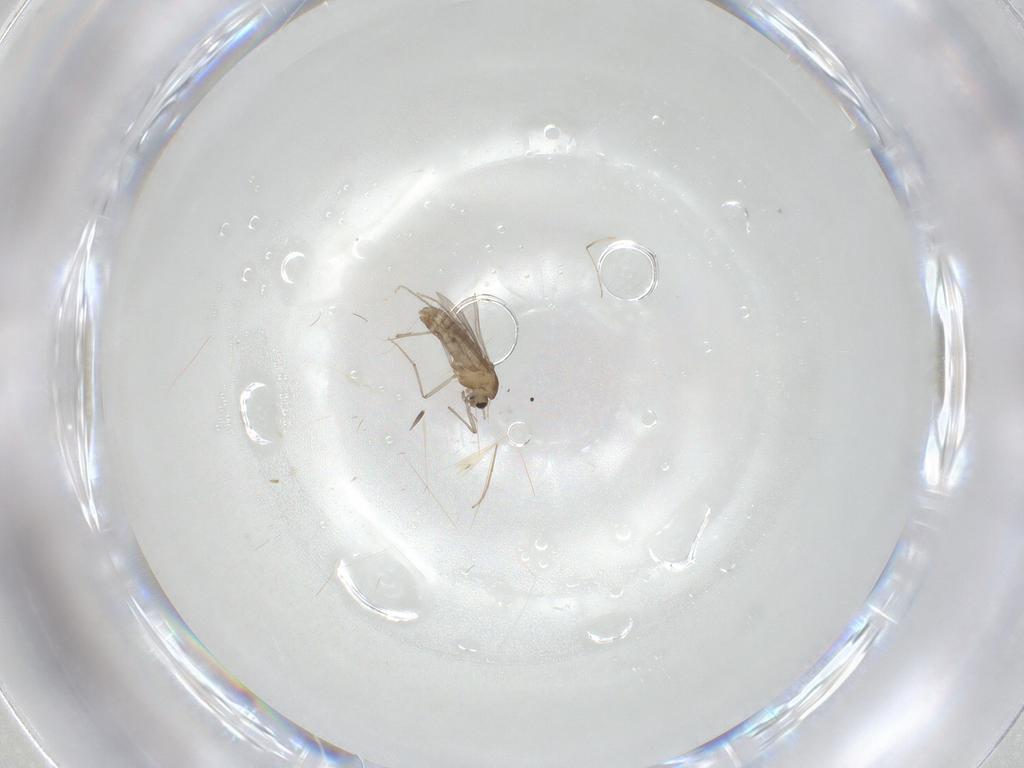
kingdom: Animalia
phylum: Arthropoda
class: Insecta
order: Diptera
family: Chironomidae
